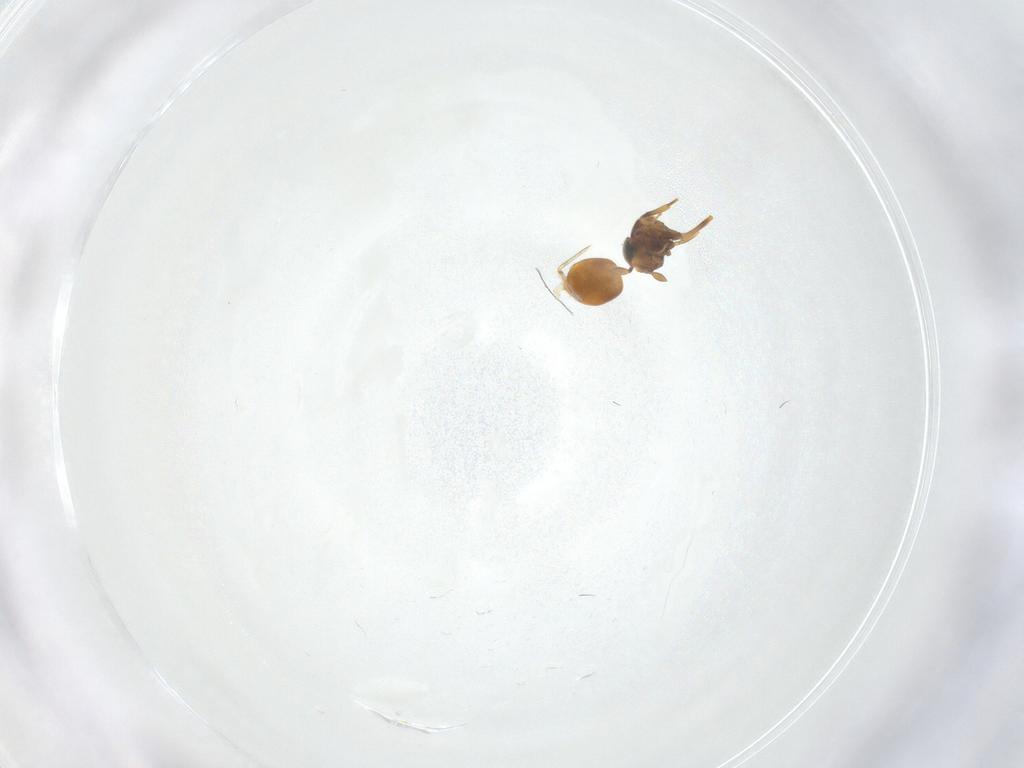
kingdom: Animalia
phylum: Arthropoda
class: Insecta
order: Hymenoptera
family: Scelionidae
